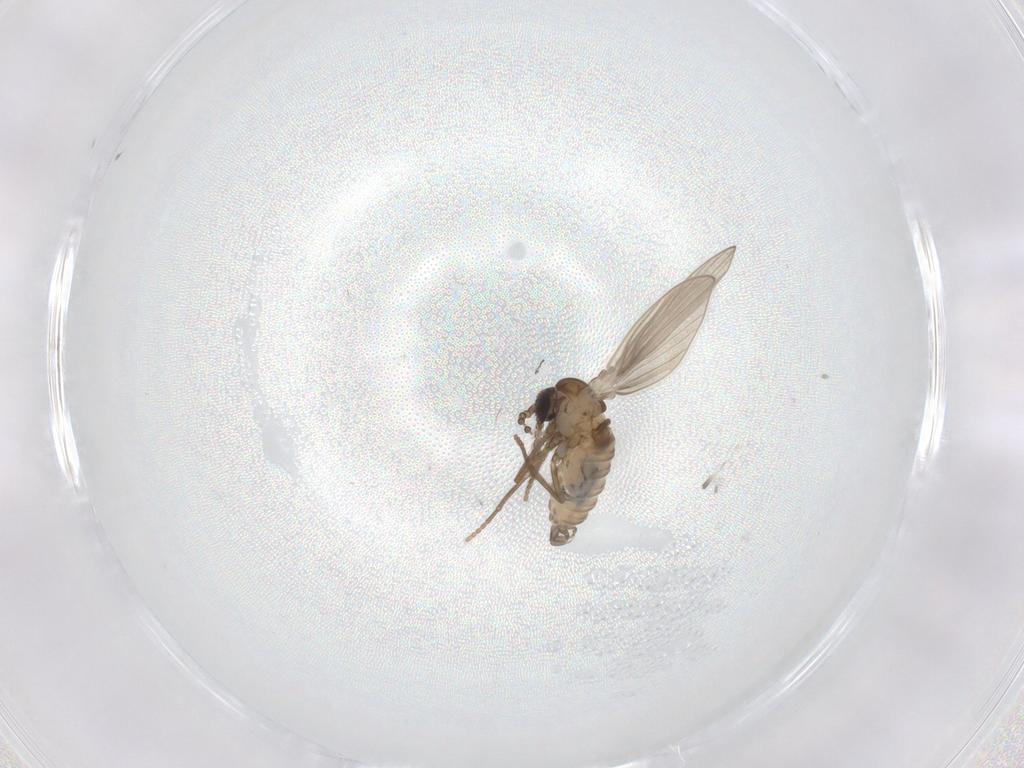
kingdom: Animalia
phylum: Arthropoda
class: Insecta
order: Diptera
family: Psychodidae
